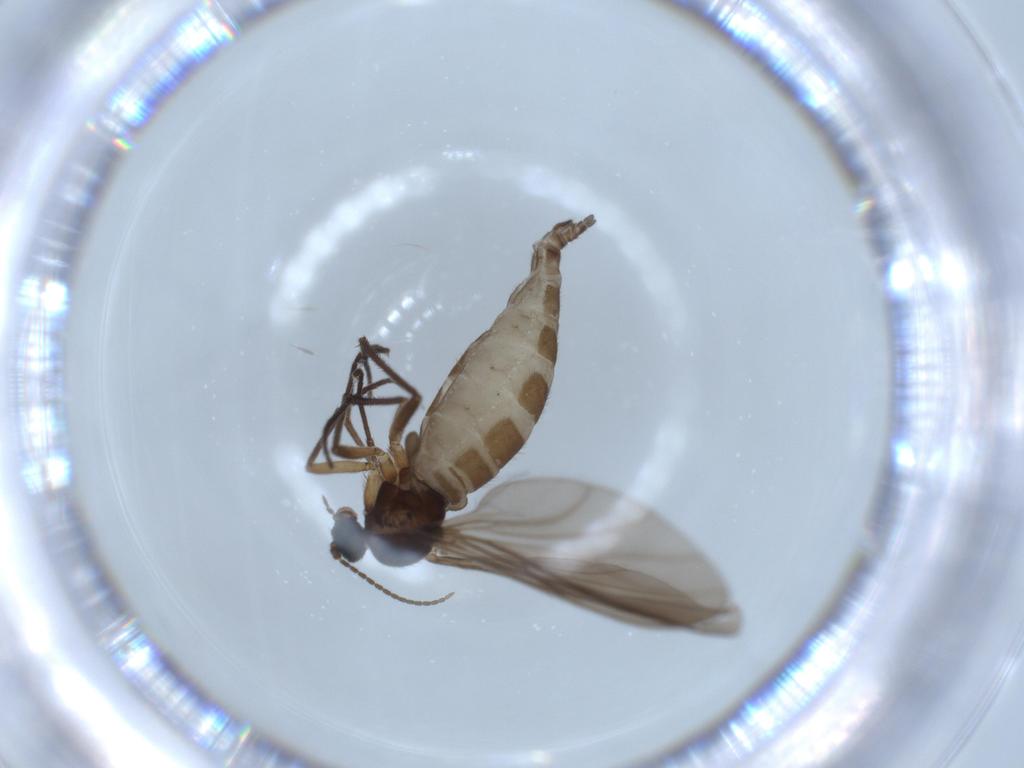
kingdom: Animalia
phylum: Arthropoda
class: Insecta
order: Diptera
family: Sciaridae
